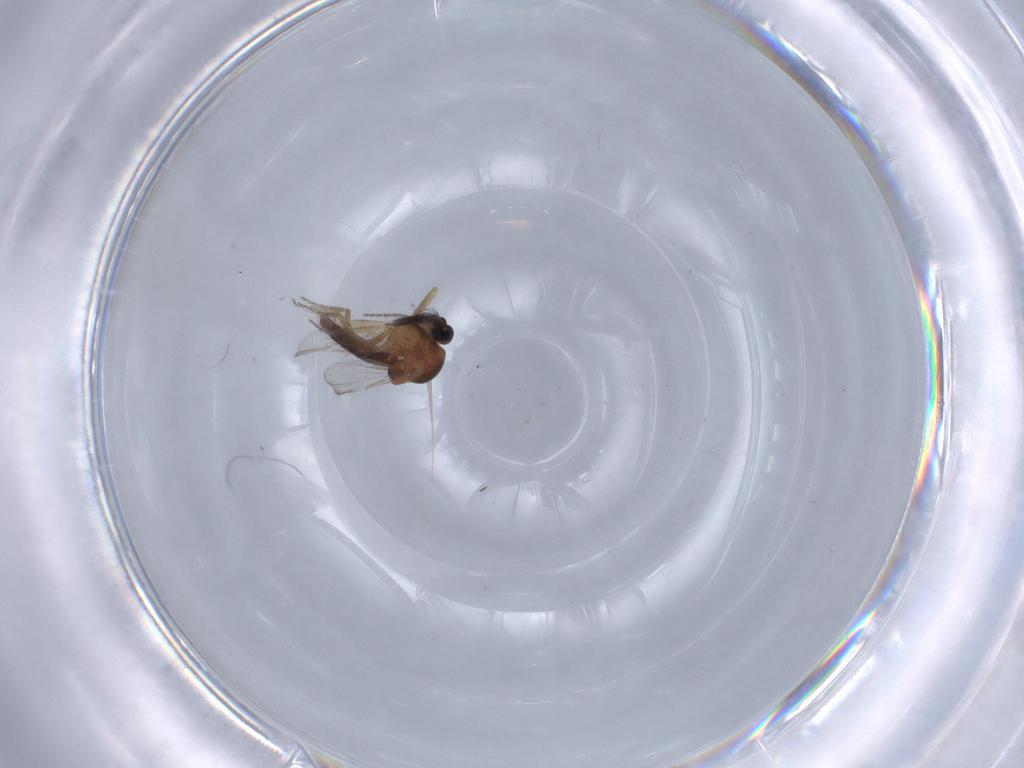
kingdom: Animalia
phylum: Arthropoda
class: Insecta
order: Diptera
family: Ceratopogonidae
